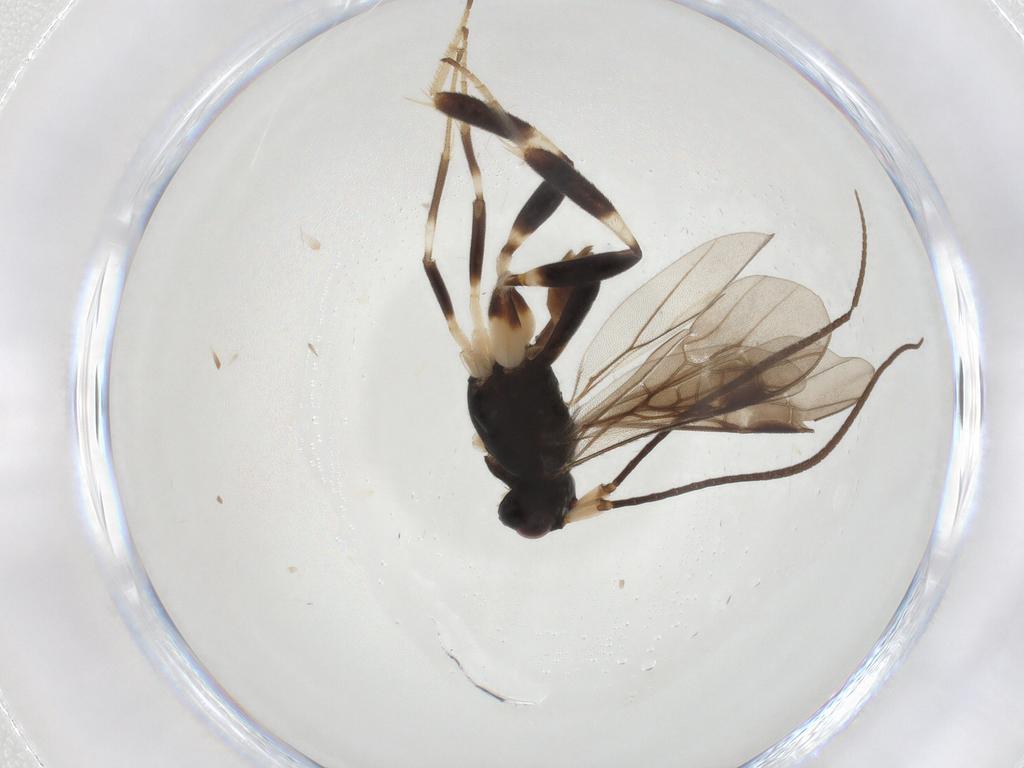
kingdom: Animalia
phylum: Arthropoda
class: Insecta
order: Hymenoptera
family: Braconidae
